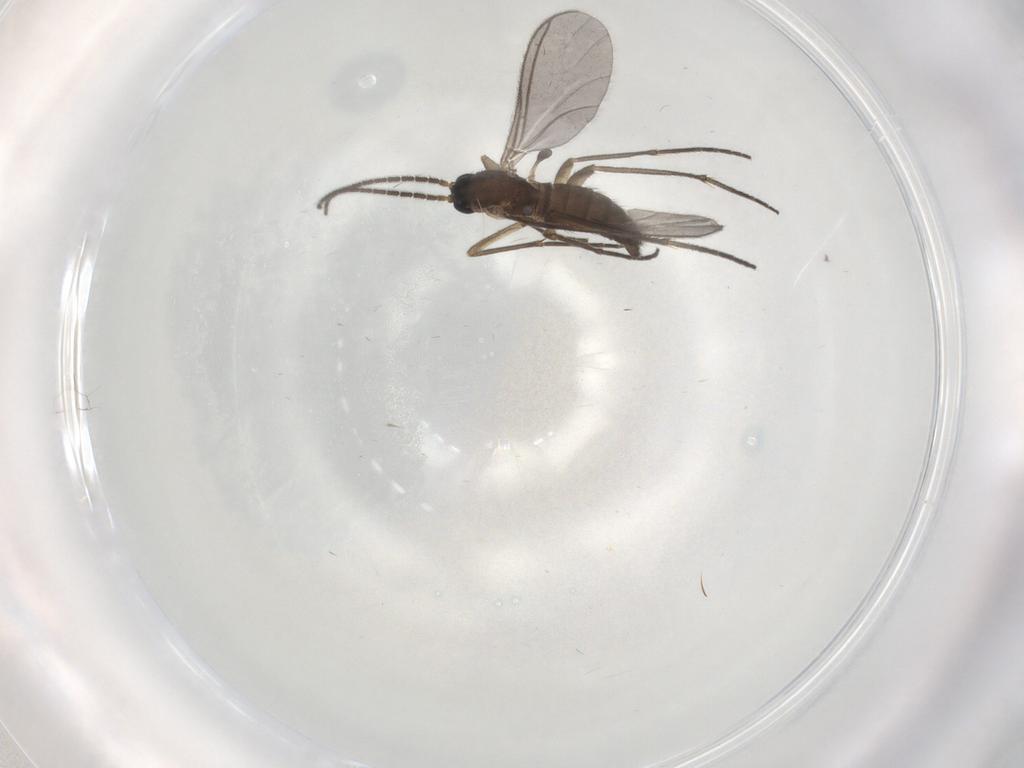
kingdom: Animalia
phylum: Arthropoda
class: Insecta
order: Diptera
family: Sciaridae
